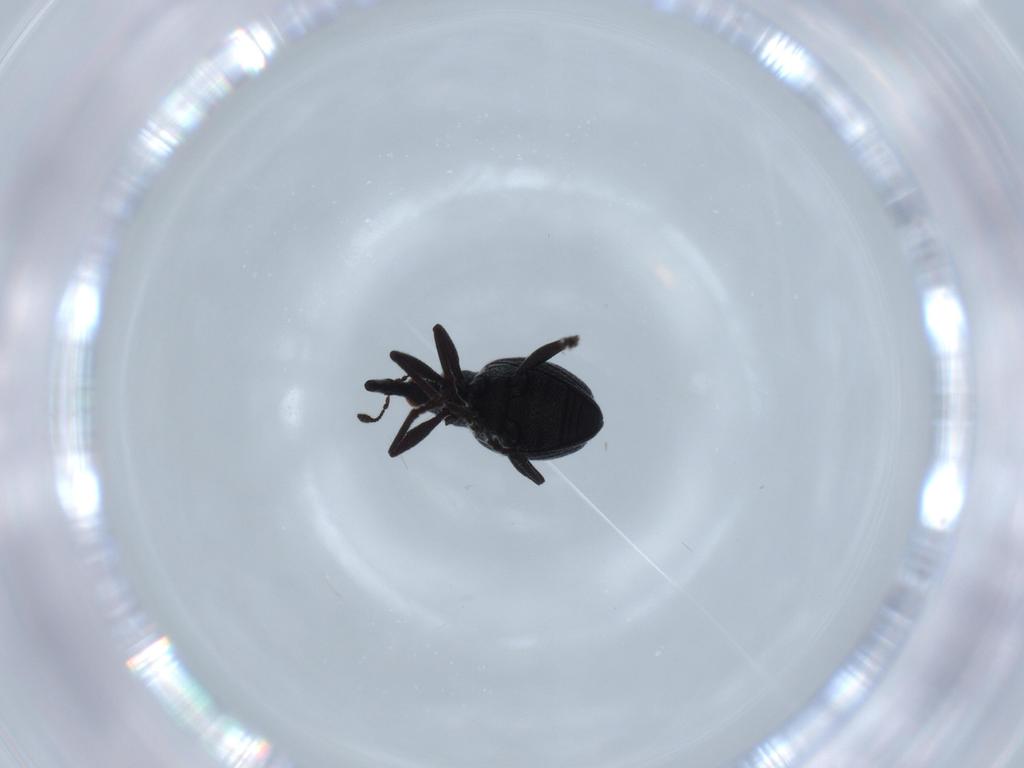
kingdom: Animalia
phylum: Arthropoda
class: Insecta
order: Coleoptera
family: Brentidae
